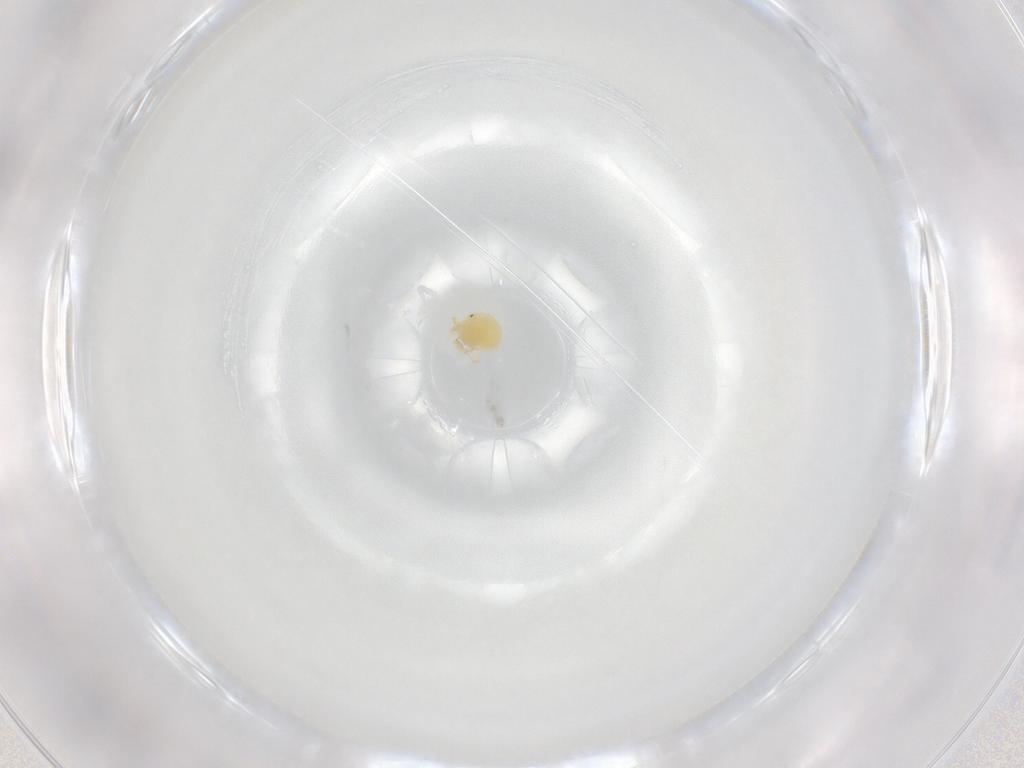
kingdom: Animalia
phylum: Arthropoda
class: Arachnida
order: Trombidiformes
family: Sperchontidae
